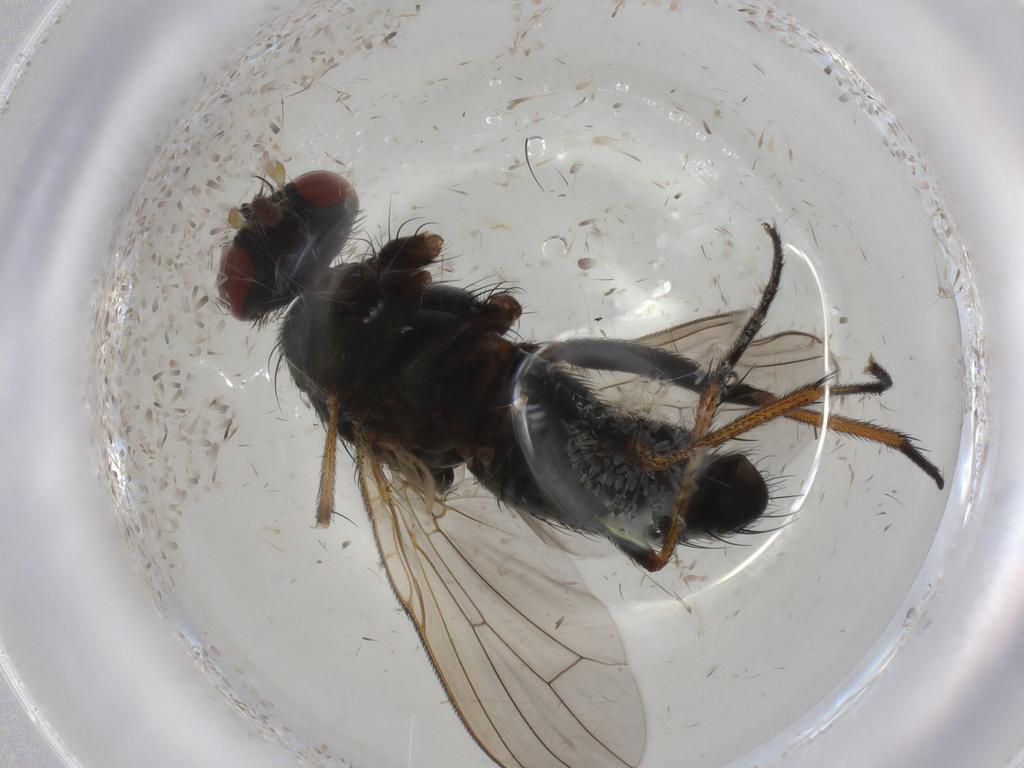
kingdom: Animalia
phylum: Arthropoda
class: Insecta
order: Diptera
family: Muscidae
